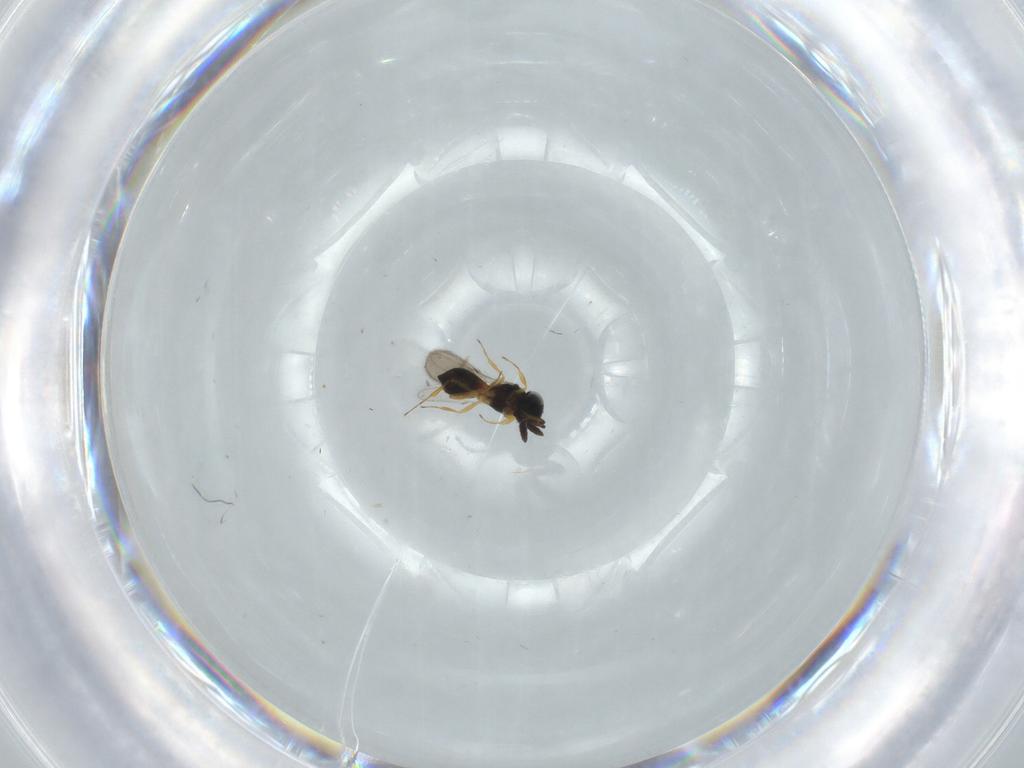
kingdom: Animalia
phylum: Arthropoda
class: Insecta
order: Hymenoptera
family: Scelionidae
